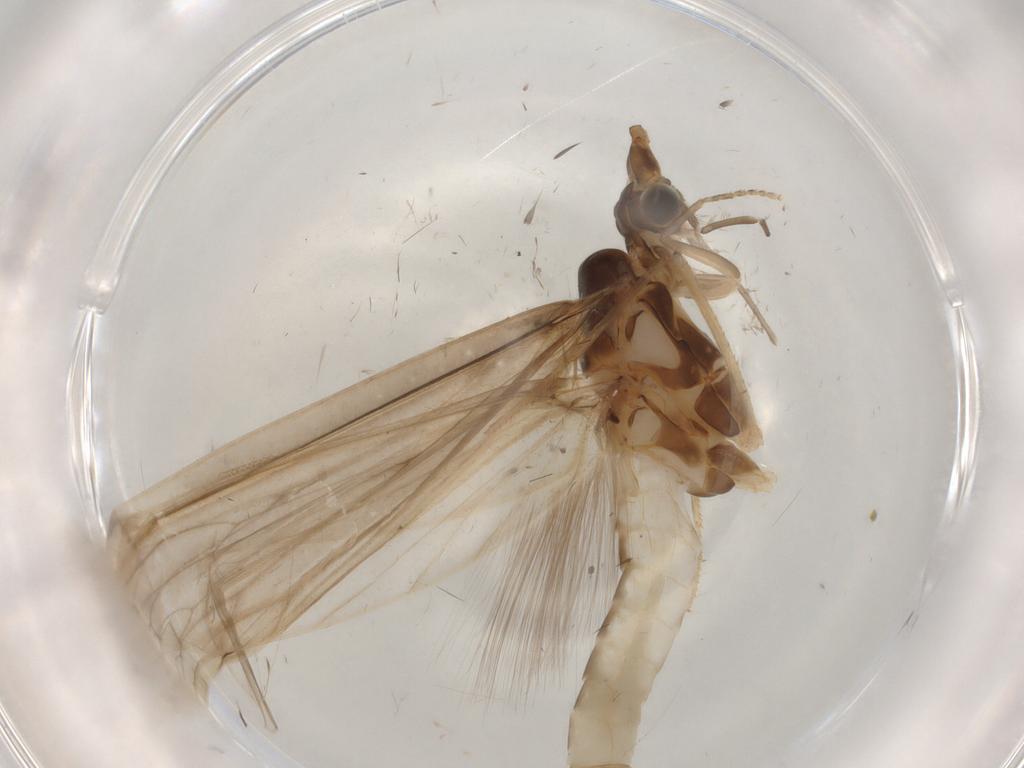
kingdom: Animalia
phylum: Arthropoda
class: Insecta
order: Trichoptera
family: Leptoceridae
